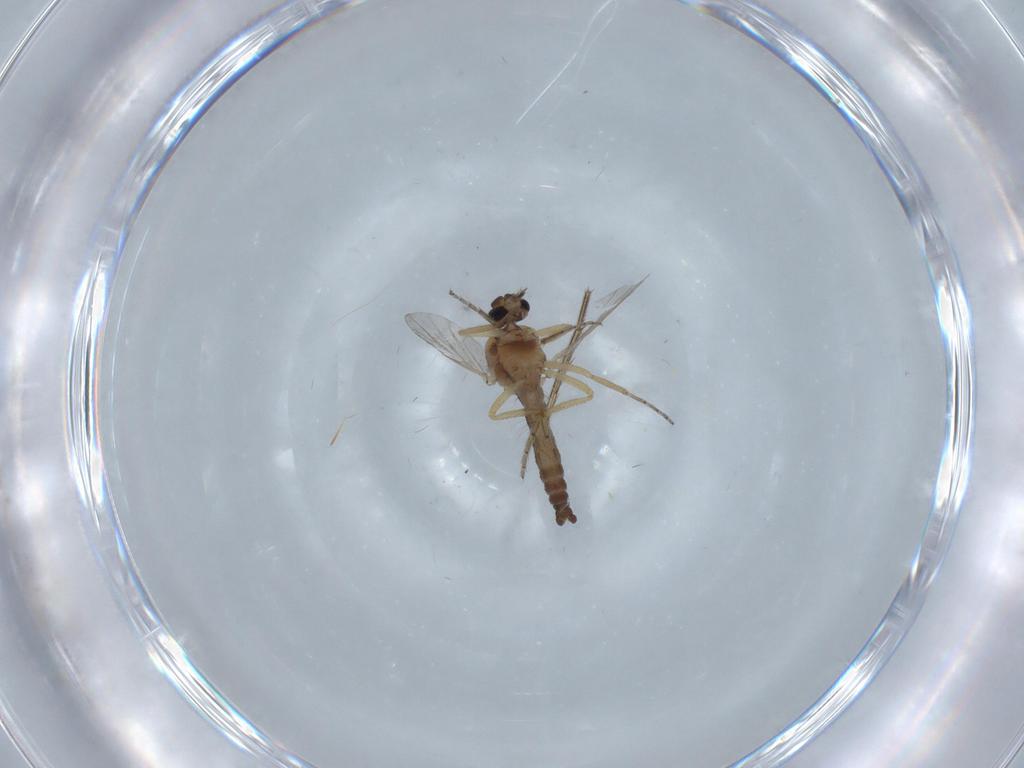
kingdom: Animalia
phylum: Arthropoda
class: Insecta
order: Diptera
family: Ceratopogonidae
